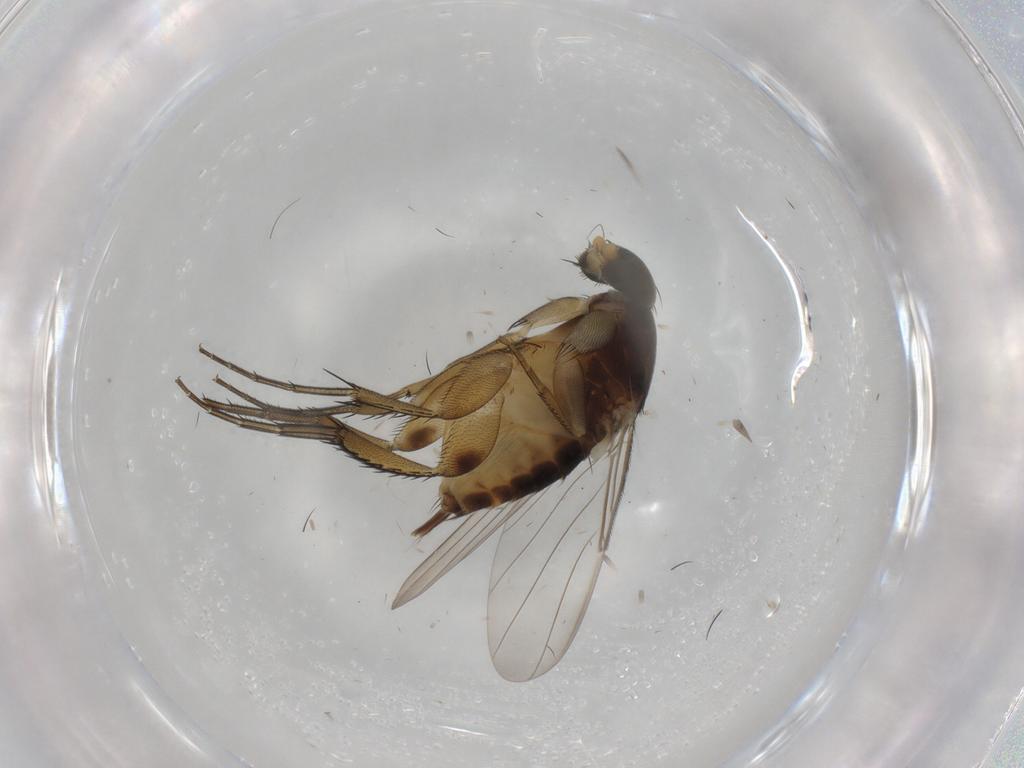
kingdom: Animalia
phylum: Arthropoda
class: Insecta
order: Diptera
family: Phoridae
